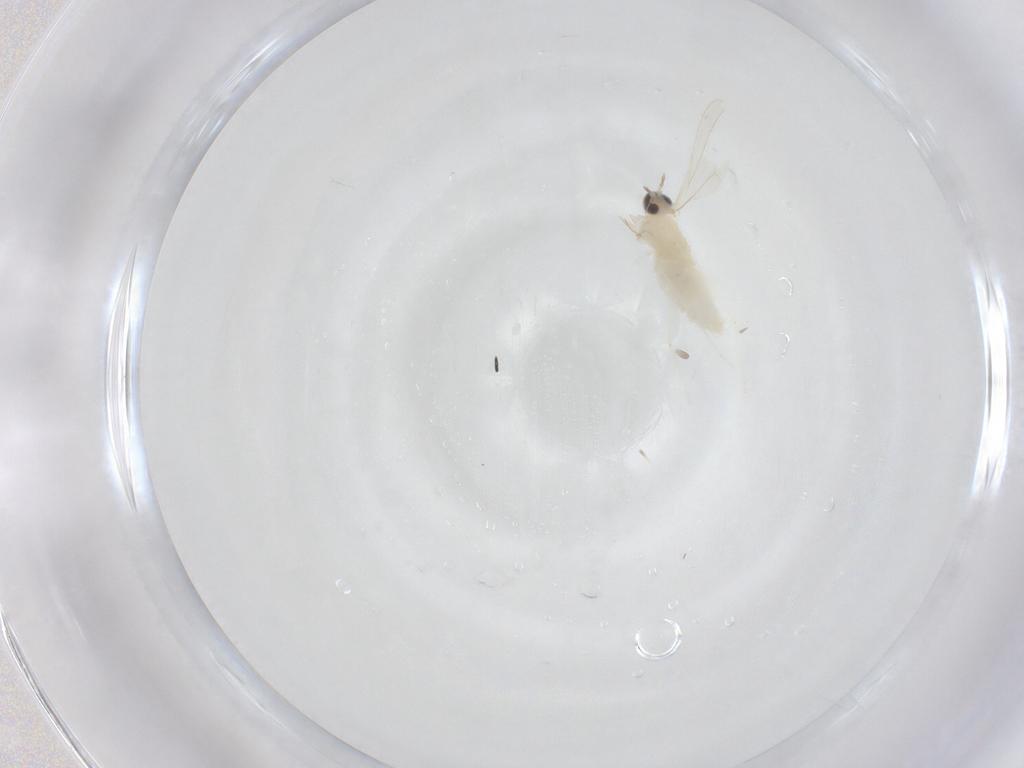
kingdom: Animalia
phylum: Arthropoda
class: Insecta
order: Diptera
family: Cecidomyiidae
